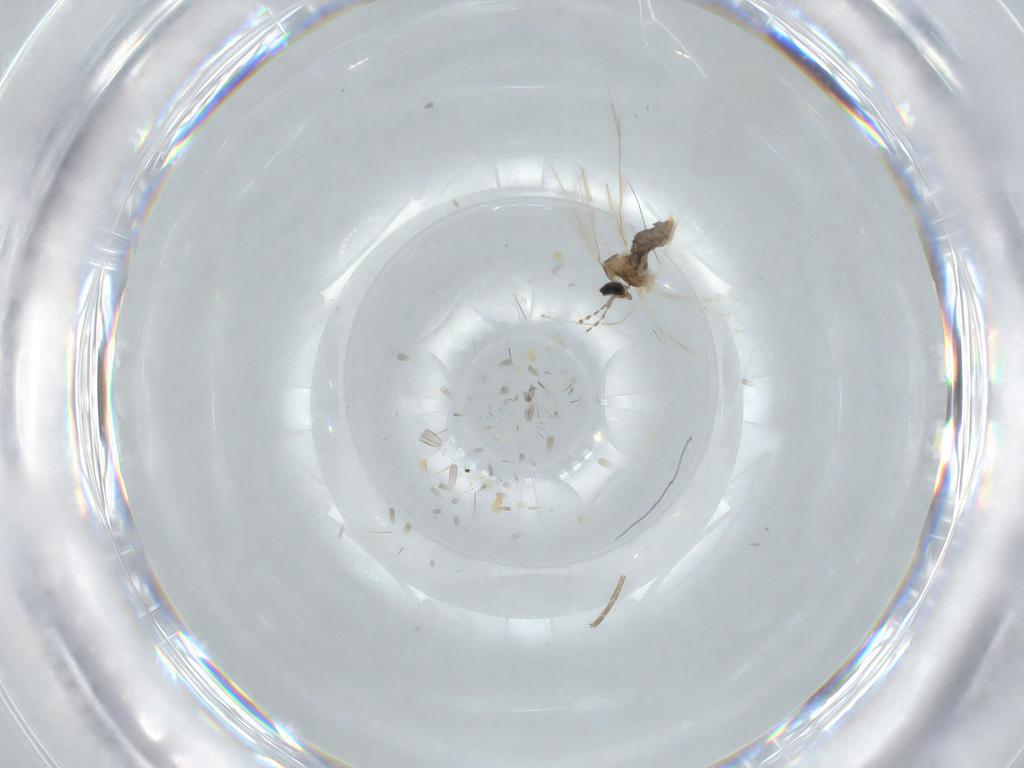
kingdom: Animalia
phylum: Arthropoda
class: Insecta
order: Diptera
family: Mycetophilidae
